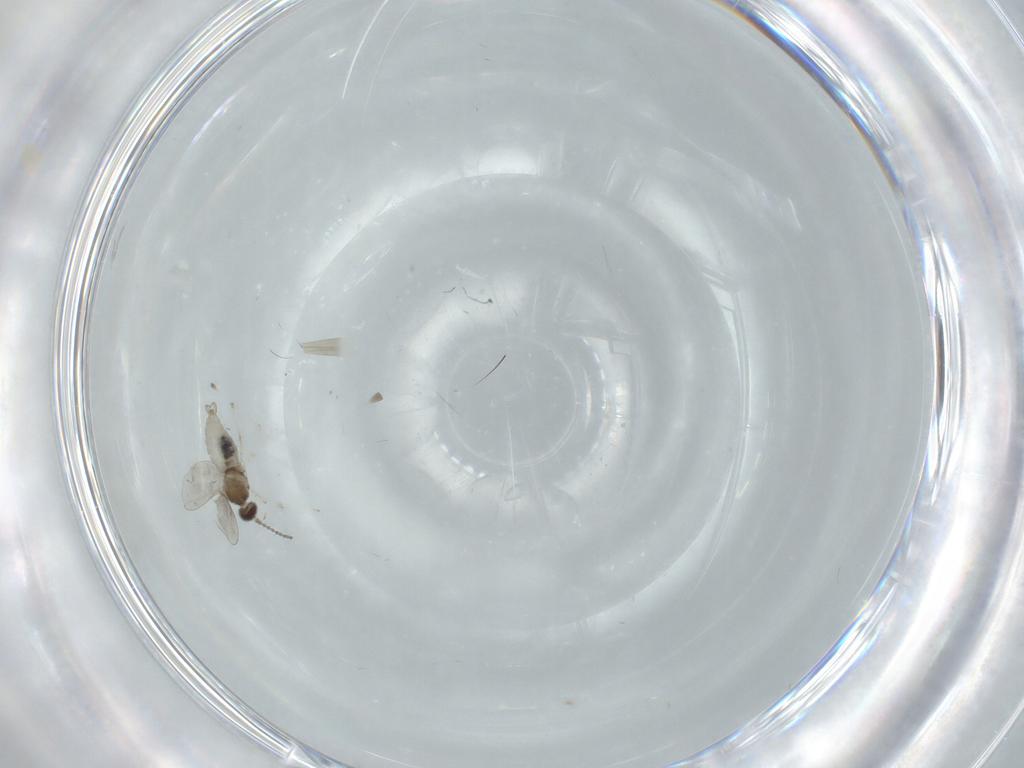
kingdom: Animalia
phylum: Arthropoda
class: Insecta
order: Diptera
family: Cecidomyiidae
